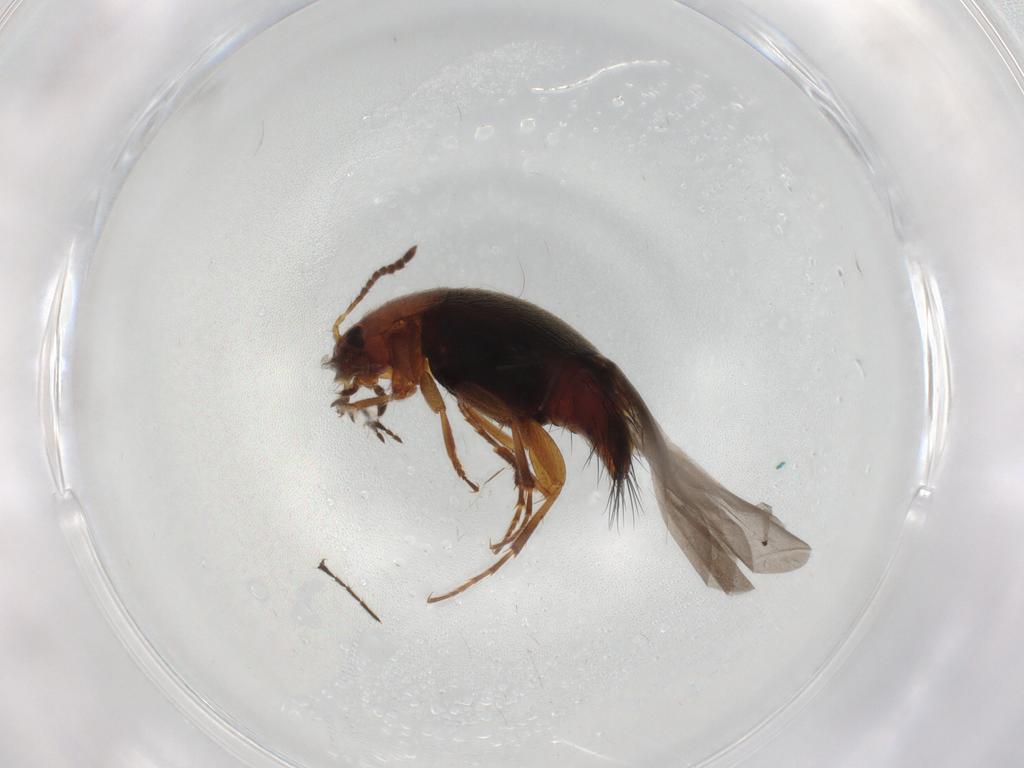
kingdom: Animalia
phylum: Arthropoda
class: Insecta
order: Coleoptera
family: Staphylinidae
